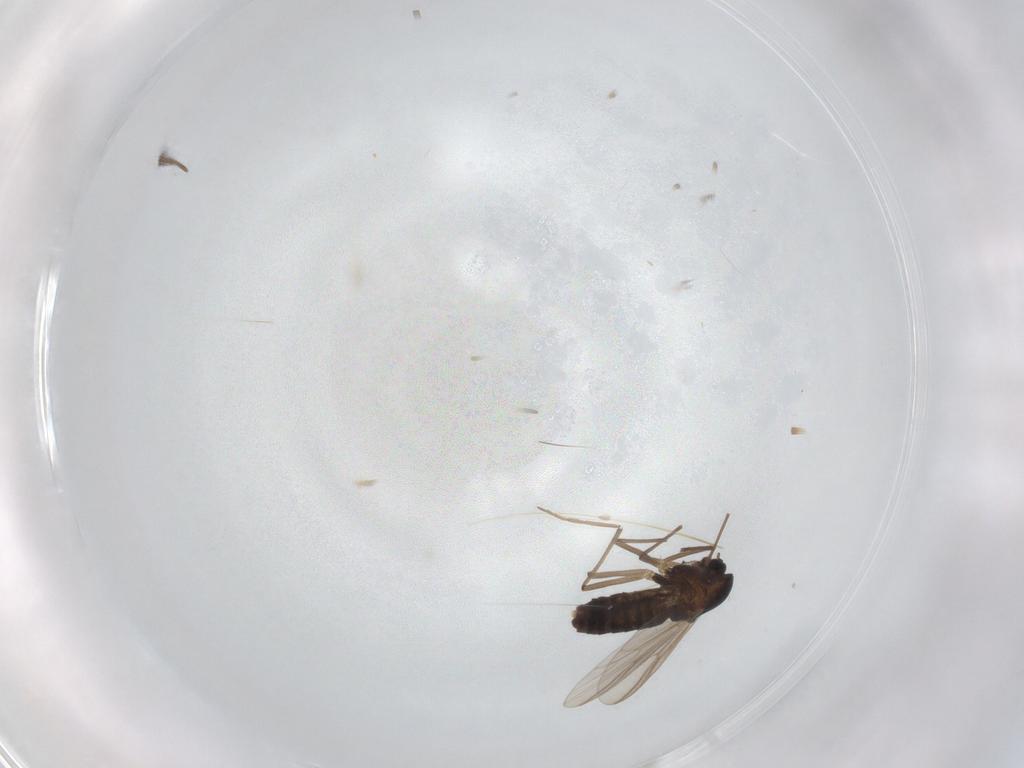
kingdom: Animalia
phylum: Arthropoda
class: Insecta
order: Diptera
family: Chironomidae
